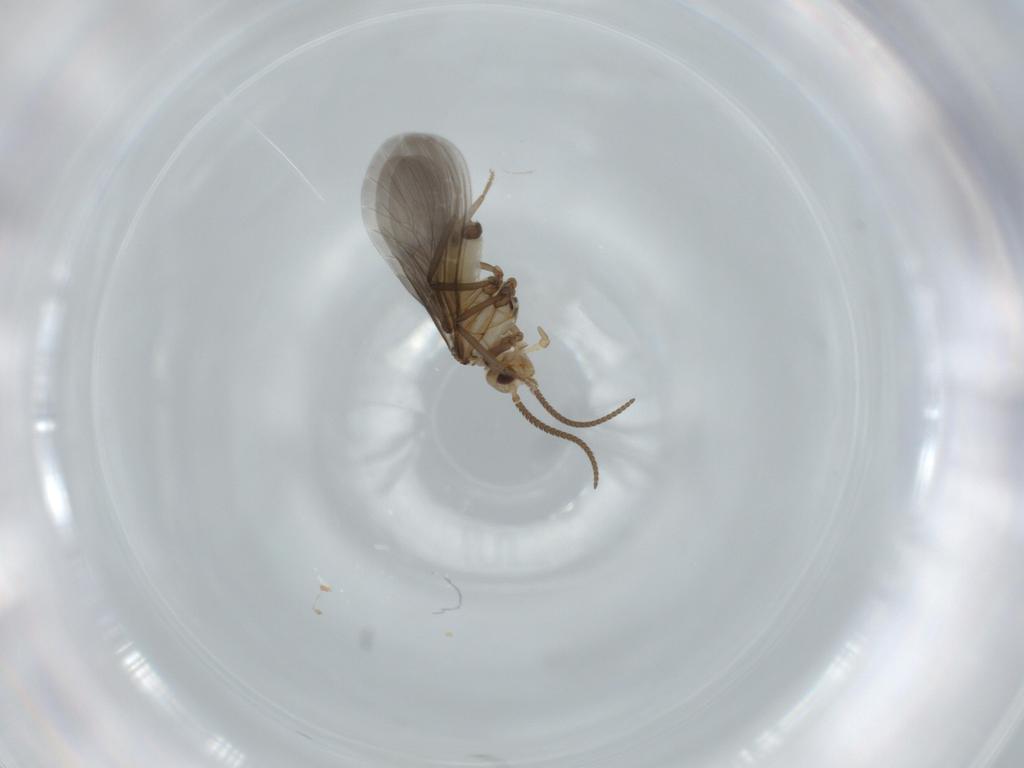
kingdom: Animalia
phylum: Arthropoda
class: Insecta
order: Neuroptera
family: Coniopterygidae
